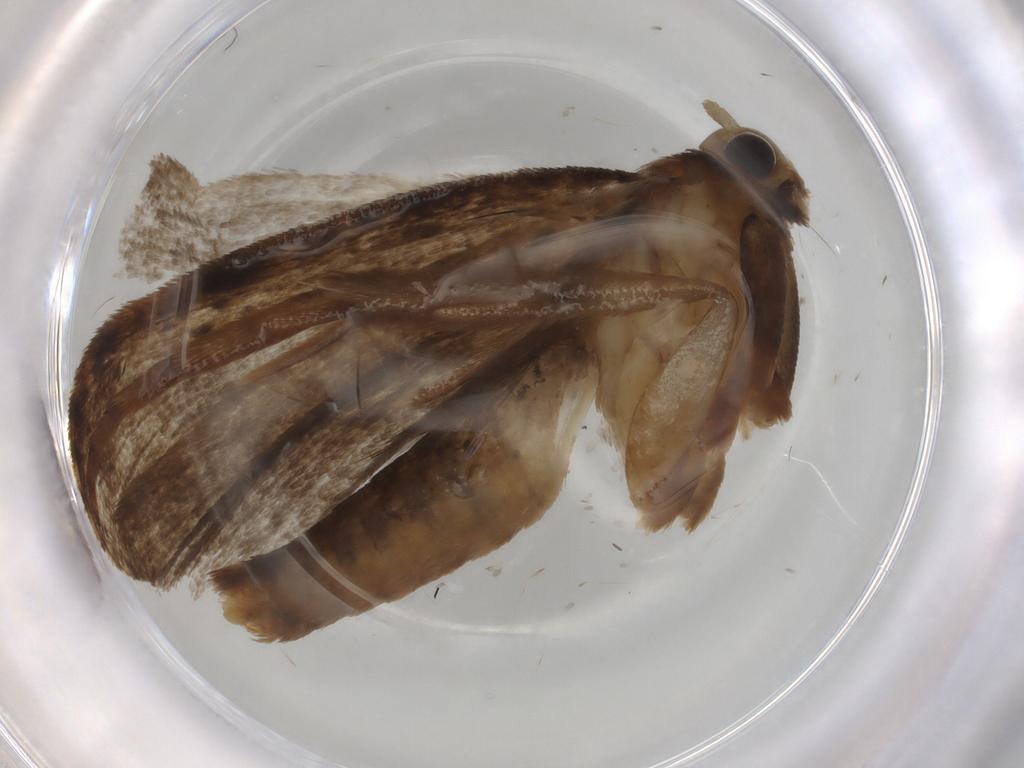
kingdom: Animalia
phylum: Arthropoda
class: Insecta
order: Lepidoptera
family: Tineidae
